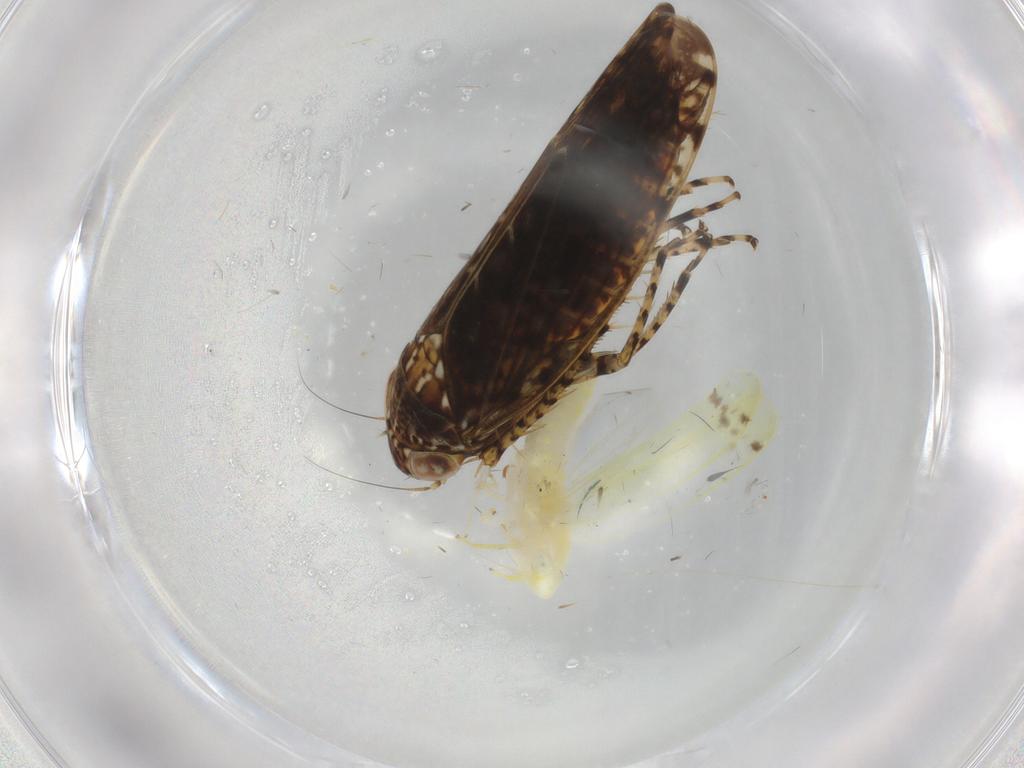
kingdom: Animalia
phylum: Arthropoda
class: Insecta
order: Hemiptera
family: Cicadellidae
